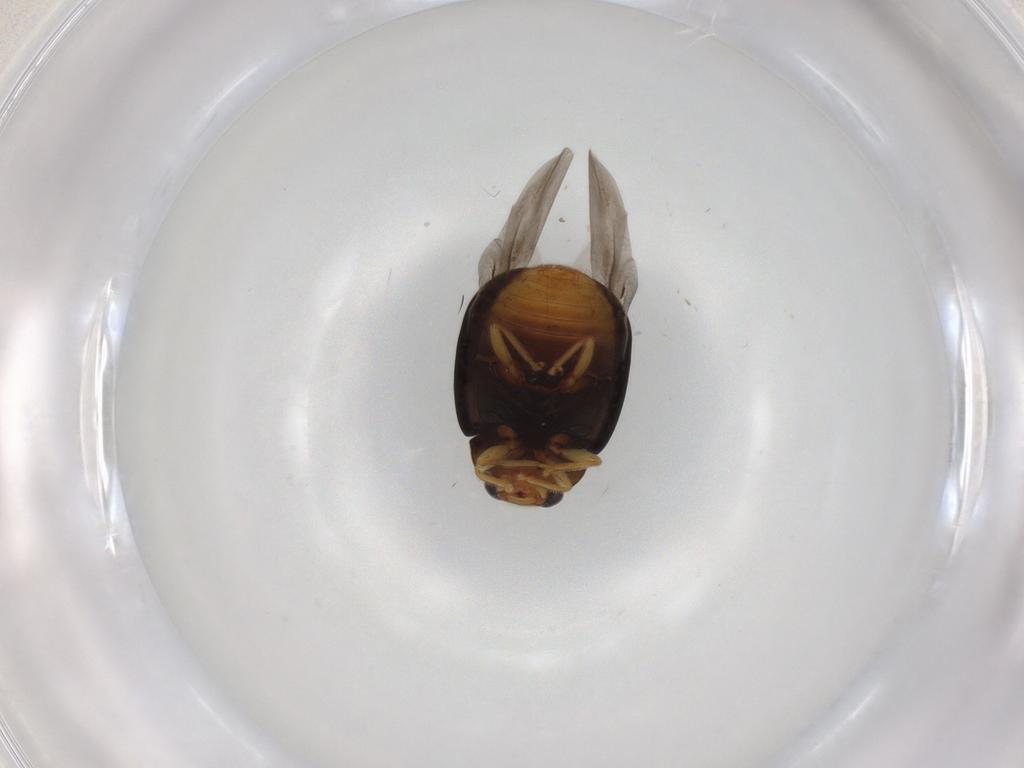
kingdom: Animalia
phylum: Arthropoda
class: Insecta
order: Coleoptera
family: Coccinellidae
